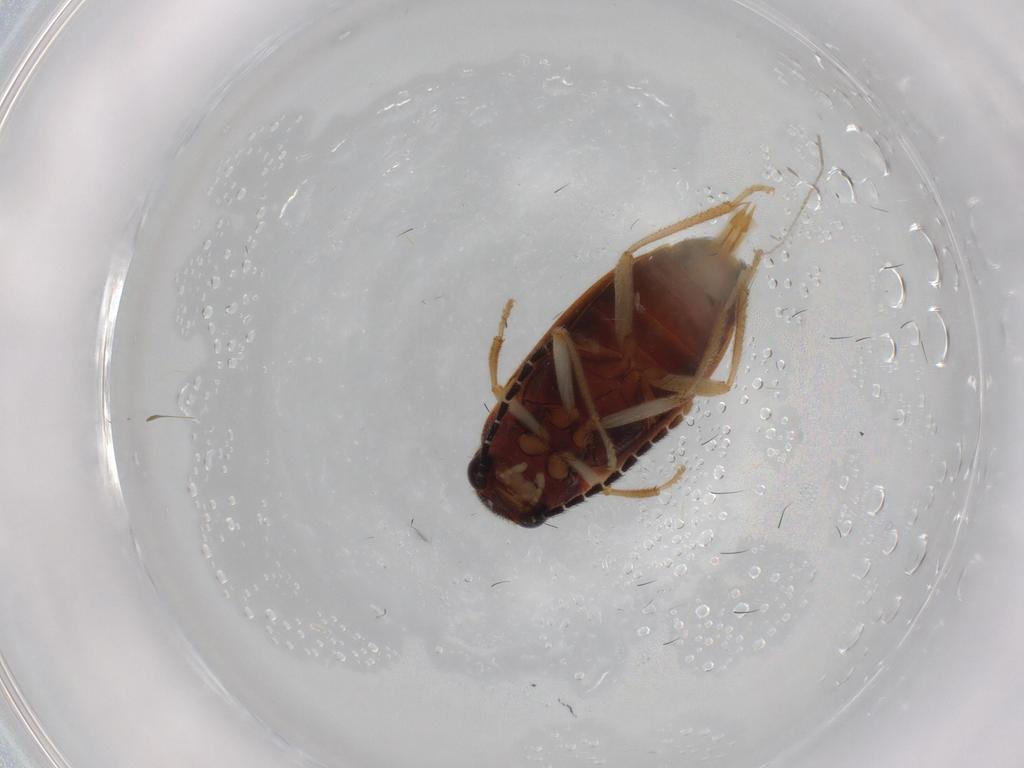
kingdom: Animalia
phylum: Arthropoda
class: Insecta
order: Coleoptera
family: Ptilodactylidae
